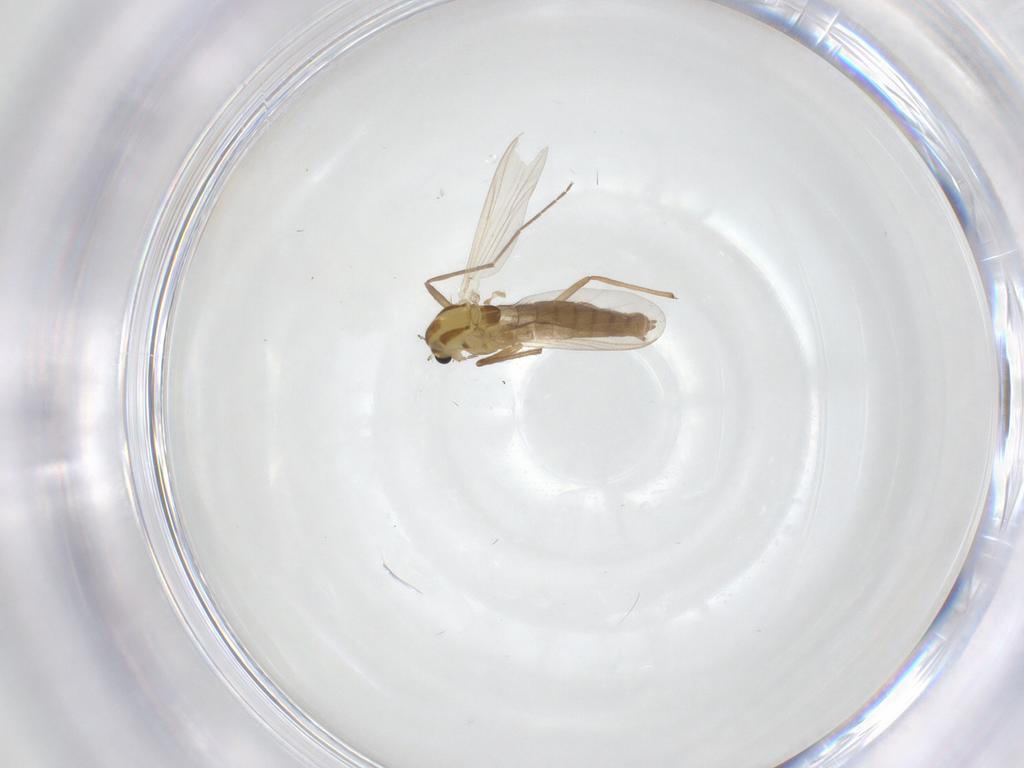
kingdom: Animalia
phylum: Arthropoda
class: Insecta
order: Diptera
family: Chironomidae
